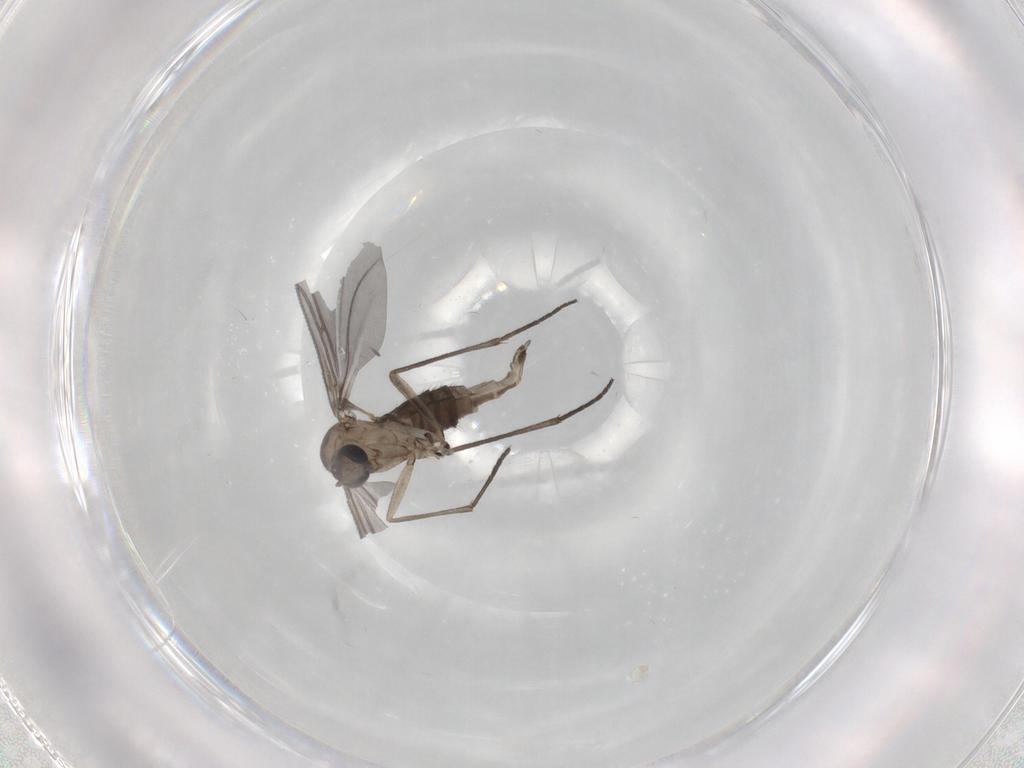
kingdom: Animalia
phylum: Arthropoda
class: Insecta
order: Diptera
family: Sciaridae
